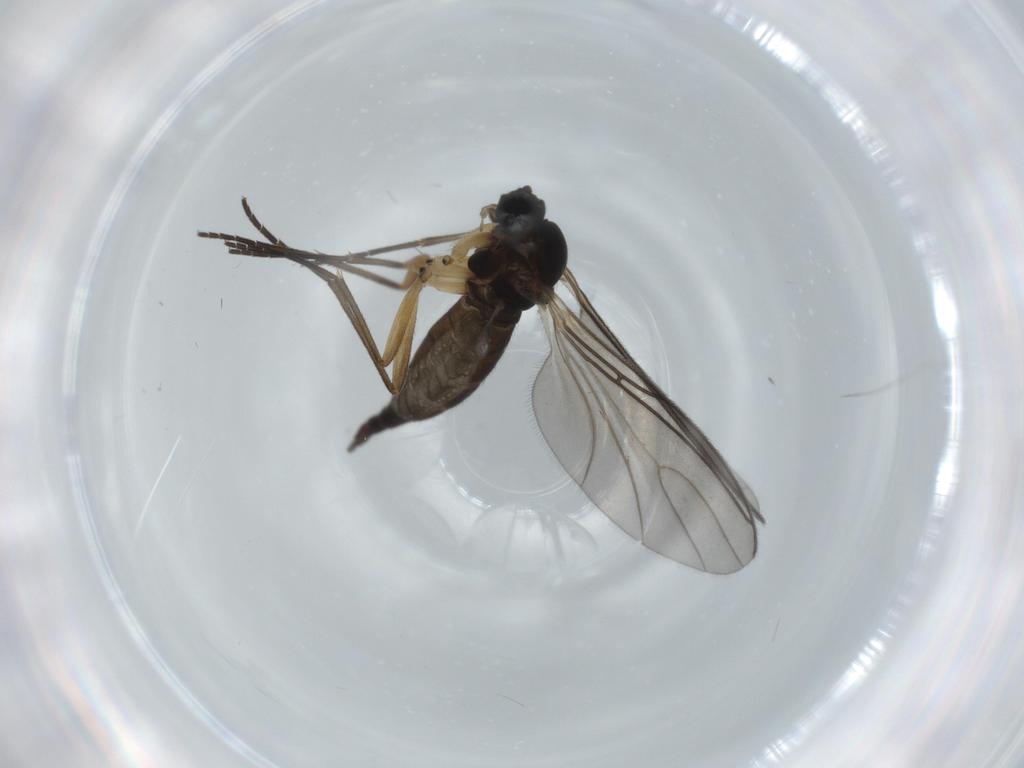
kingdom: Animalia
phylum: Arthropoda
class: Insecta
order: Diptera
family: Sciaridae
